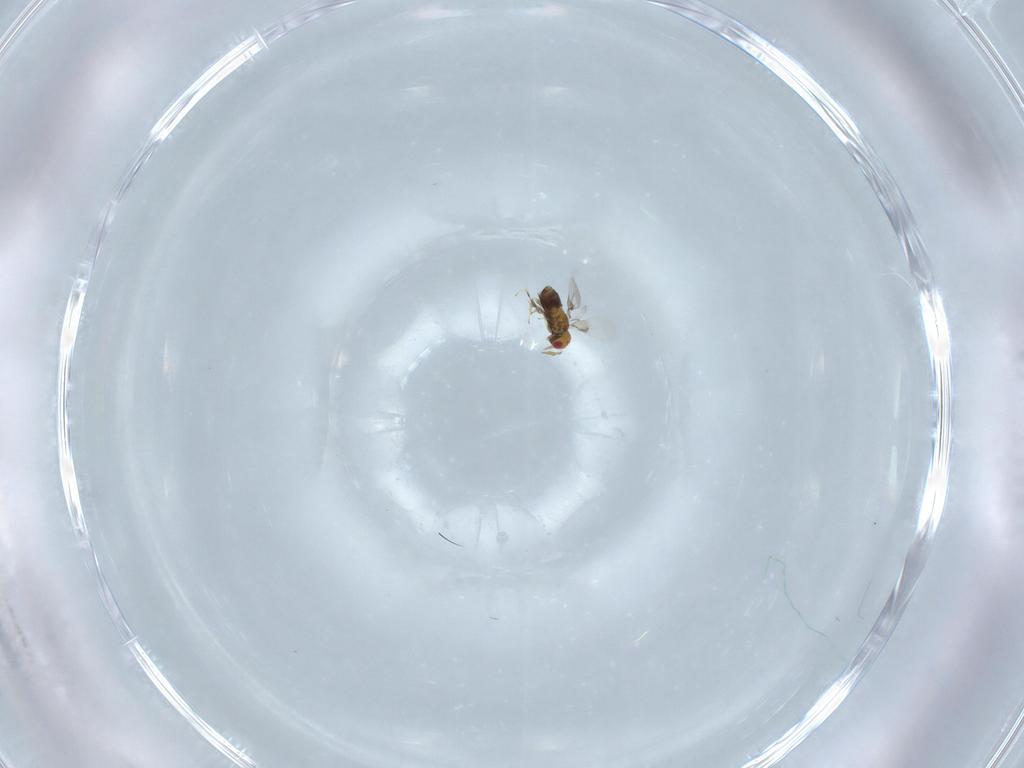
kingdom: Animalia
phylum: Arthropoda
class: Insecta
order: Hymenoptera
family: Trichogrammatidae
